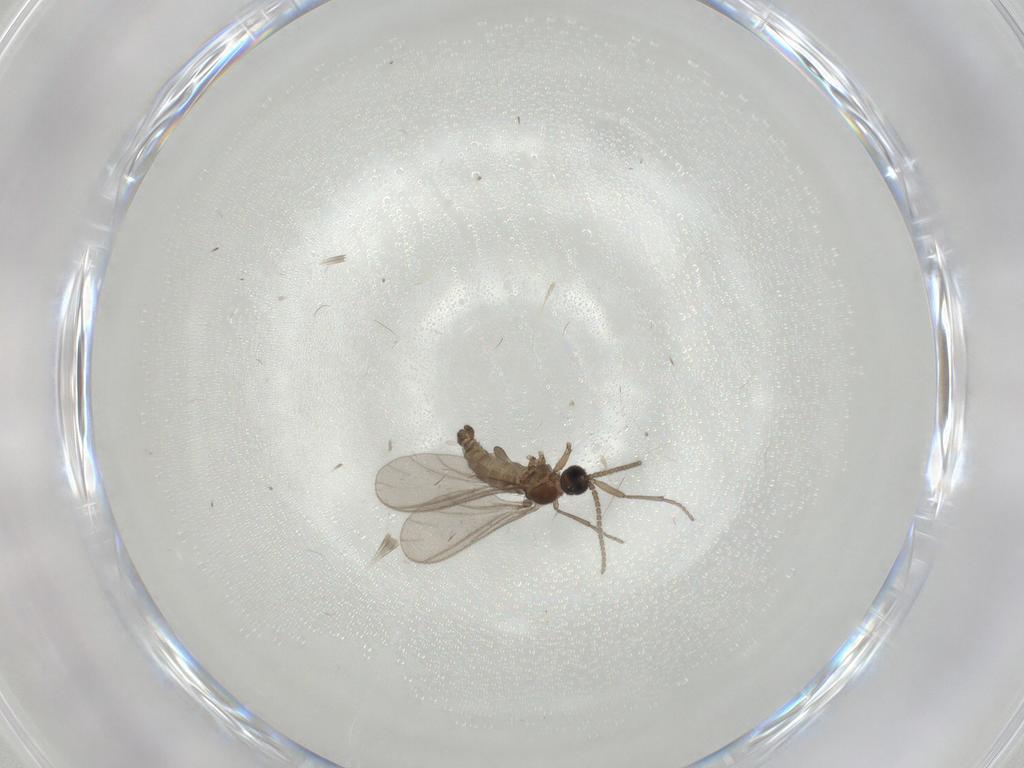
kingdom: Animalia
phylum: Arthropoda
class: Insecta
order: Diptera
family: Sciaridae
